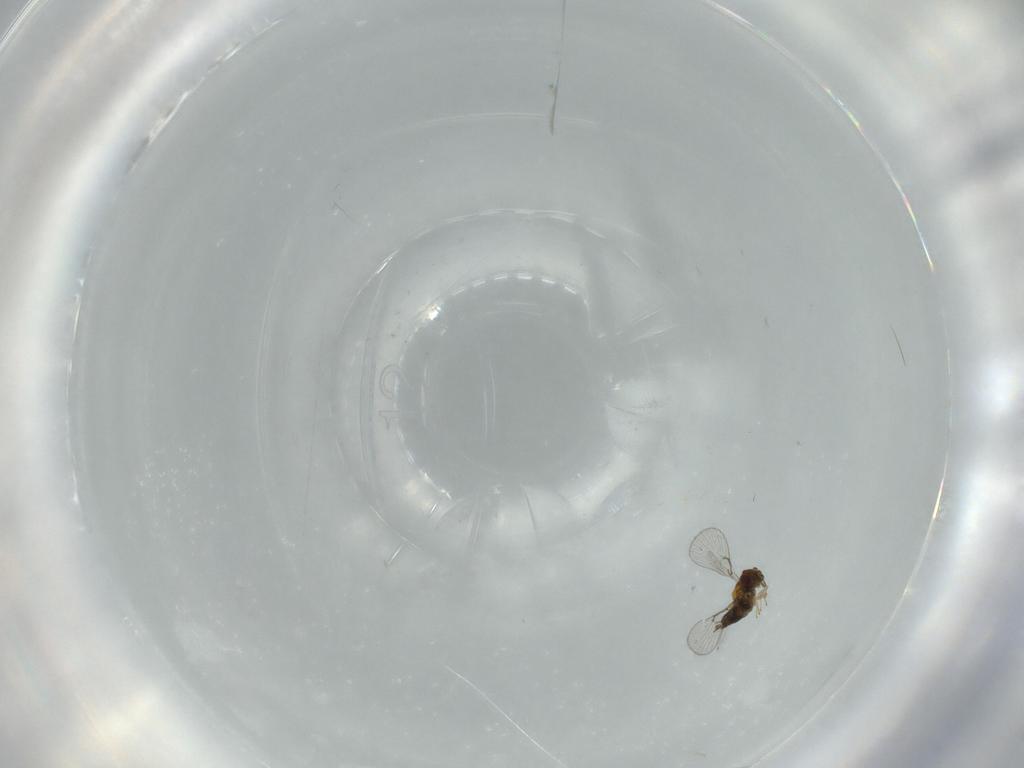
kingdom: Animalia
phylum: Arthropoda
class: Insecta
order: Hymenoptera
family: Trichogrammatidae
